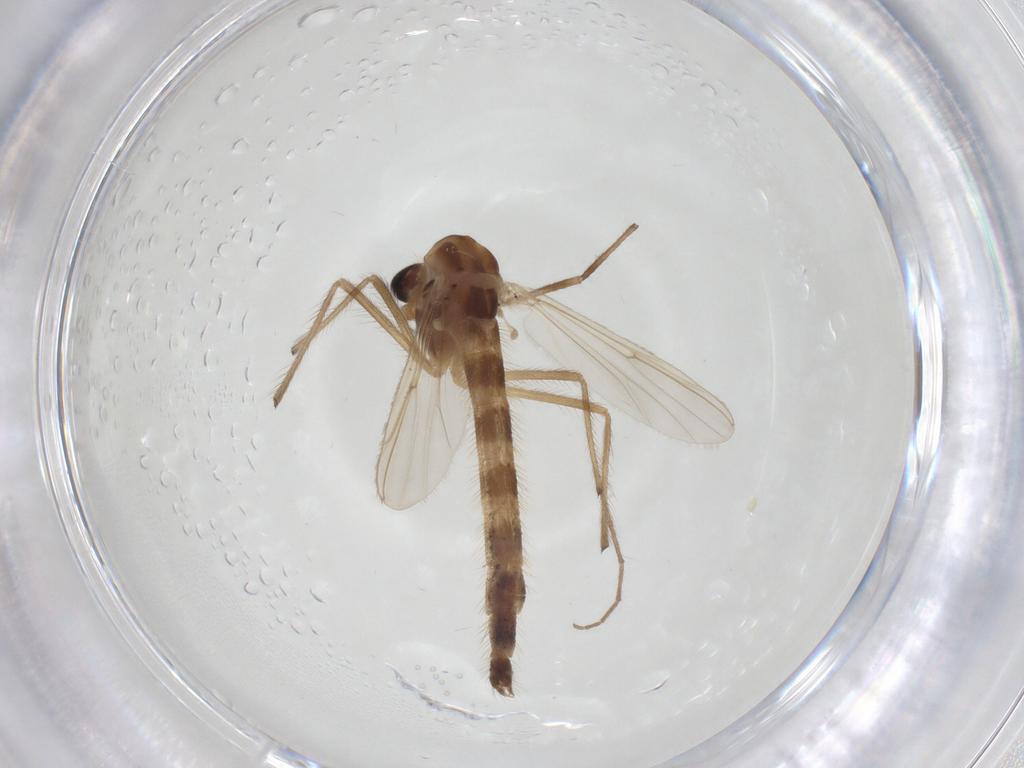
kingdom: Animalia
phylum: Arthropoda
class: Insecta
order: Diptera
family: Chironomidae
